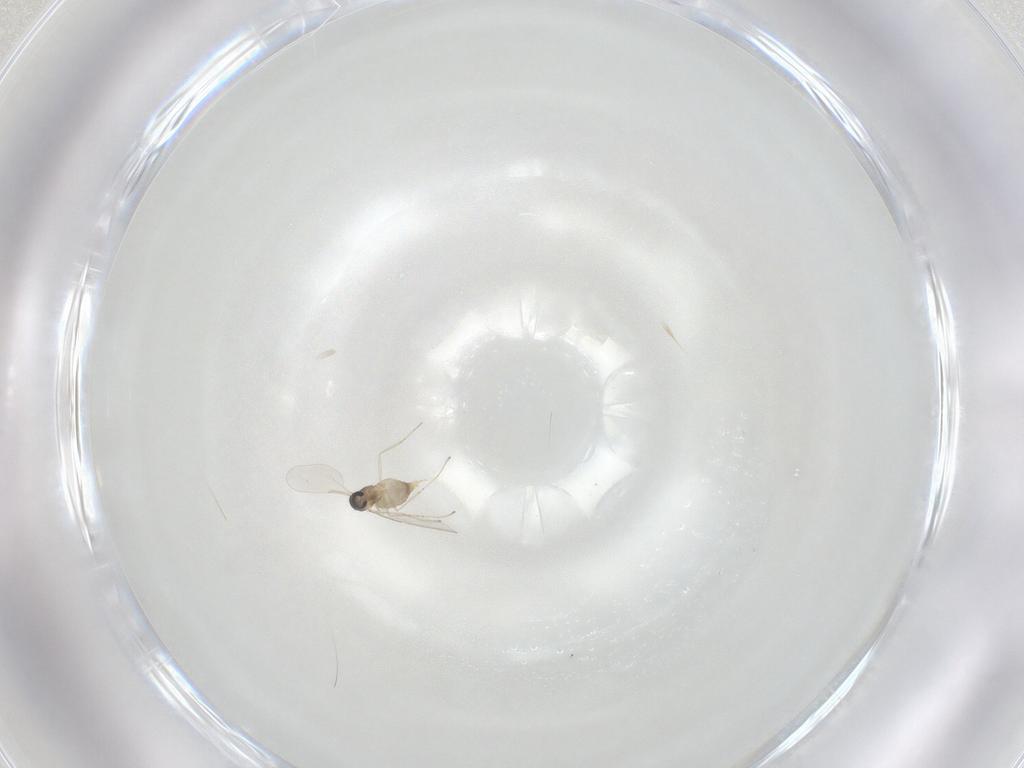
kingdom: Animalia
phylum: Arthropoda
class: Insecta
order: Diptera
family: Cecidomyiidae
